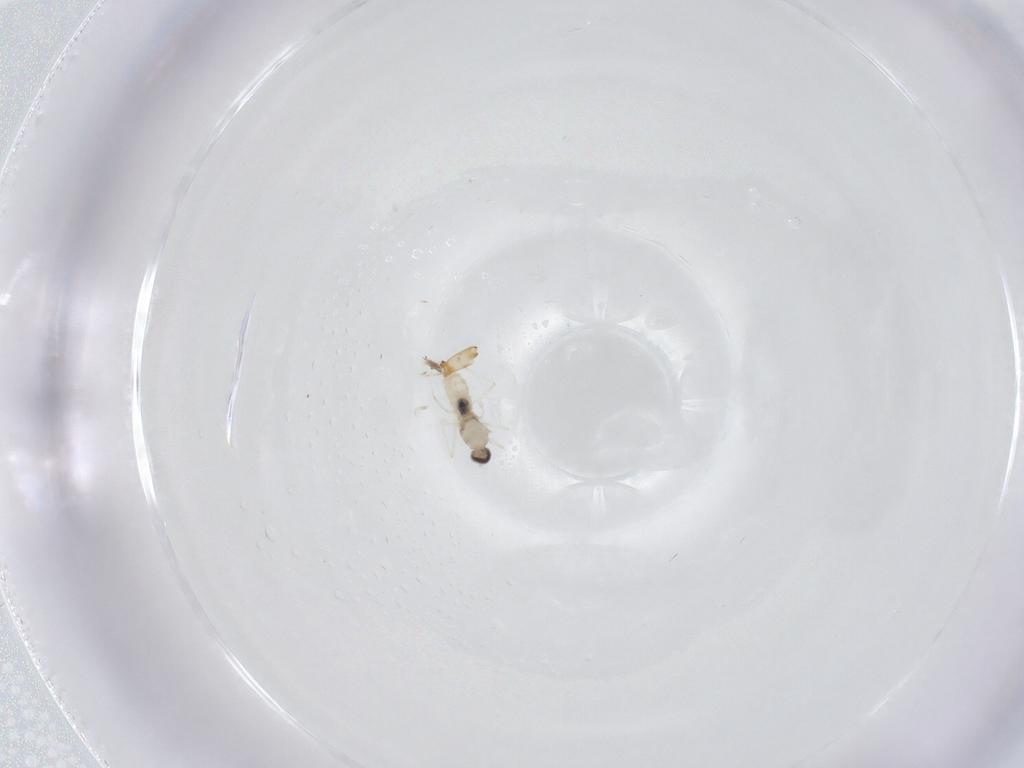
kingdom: Animalia
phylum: Arthropoda
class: Insecta
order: Diptera
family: Cecidomyiidae
